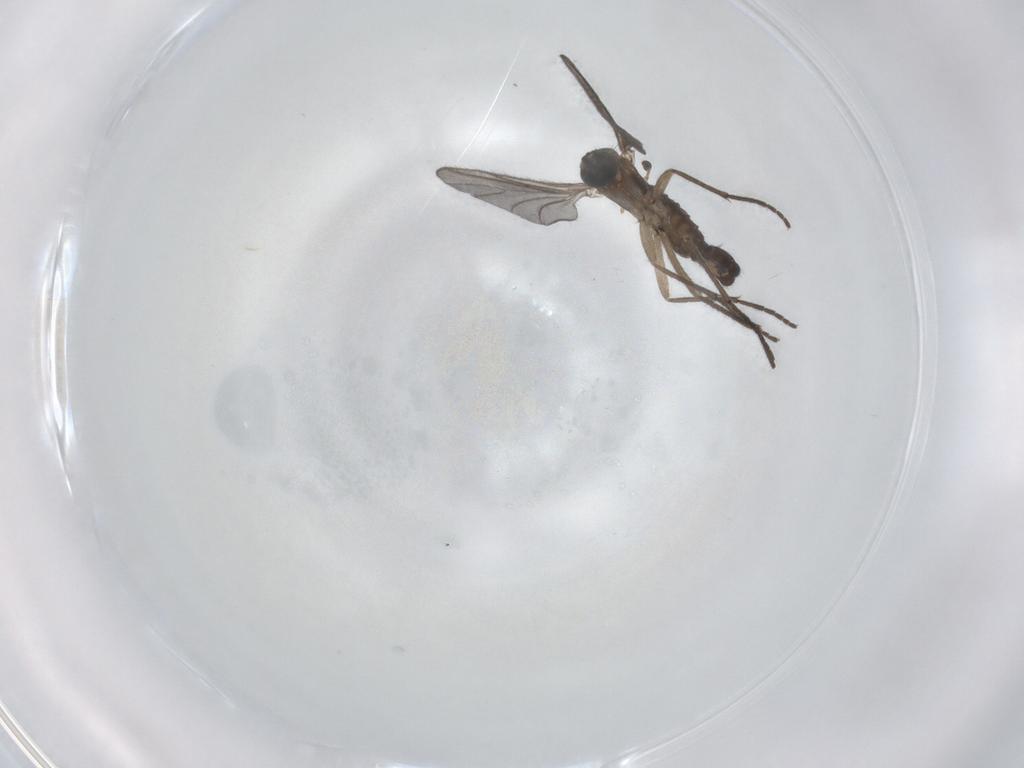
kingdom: Animalia
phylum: Arthropoda
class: Insecta
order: Diptera
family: Sciaridae
